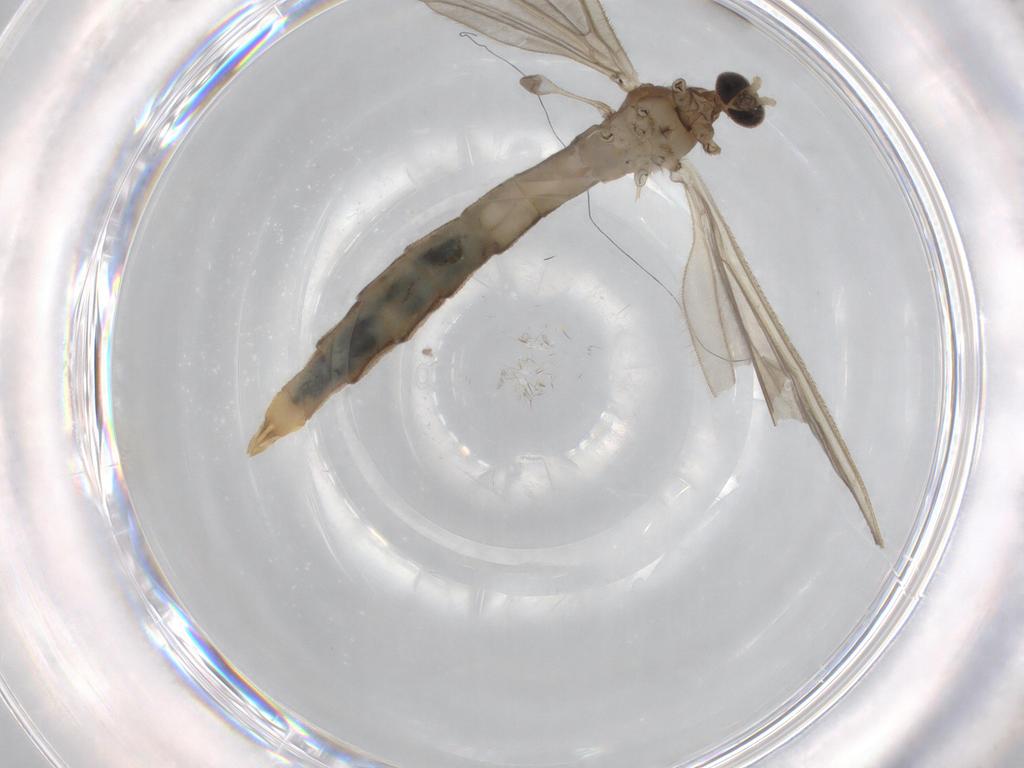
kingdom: Animalia
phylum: Arthropoda
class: Insecta
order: Diptera
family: Limoniidae
